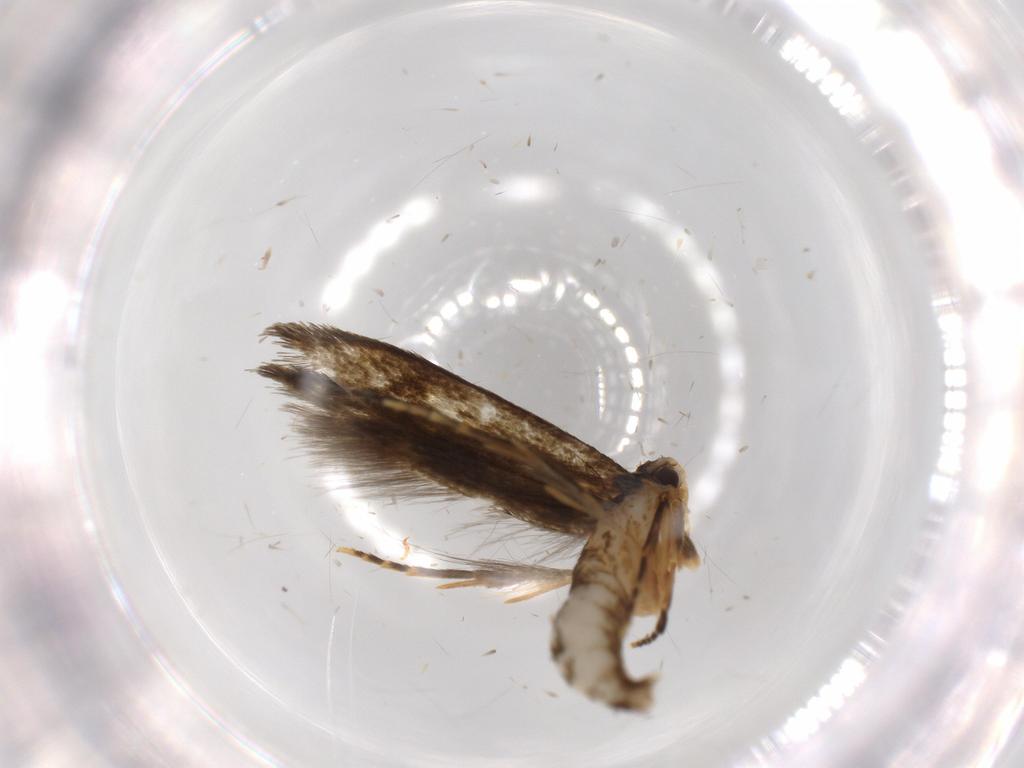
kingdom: Animalia
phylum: Arthropoda
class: Insecta
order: Lepidoptera
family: Tineidae
